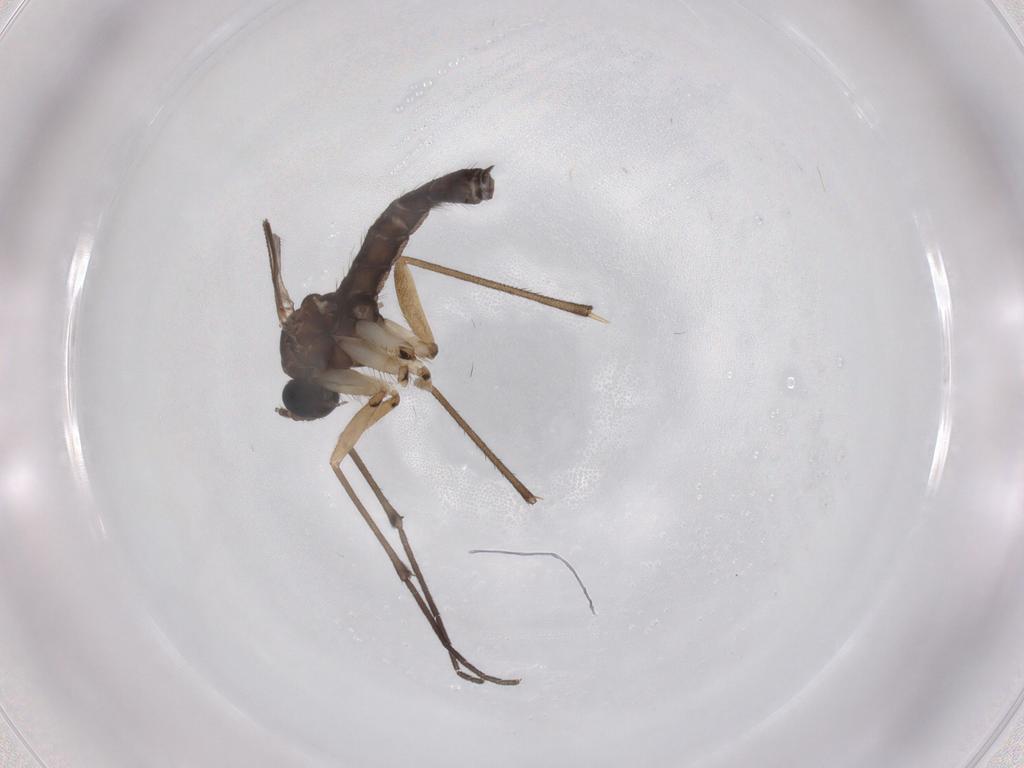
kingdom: Animalia
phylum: Arthropoda
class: Insecta
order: Diptera
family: Sciaridae
